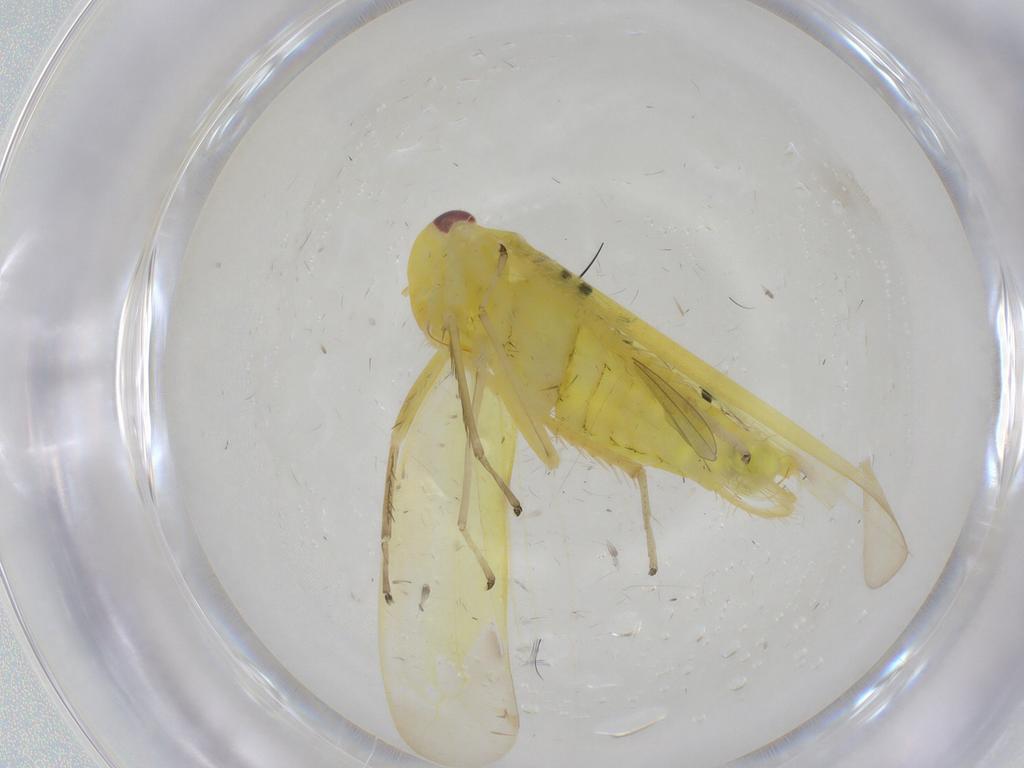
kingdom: Animalia
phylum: Arthropoda
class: Insecta
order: Hemiptera
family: Cicadellidae
